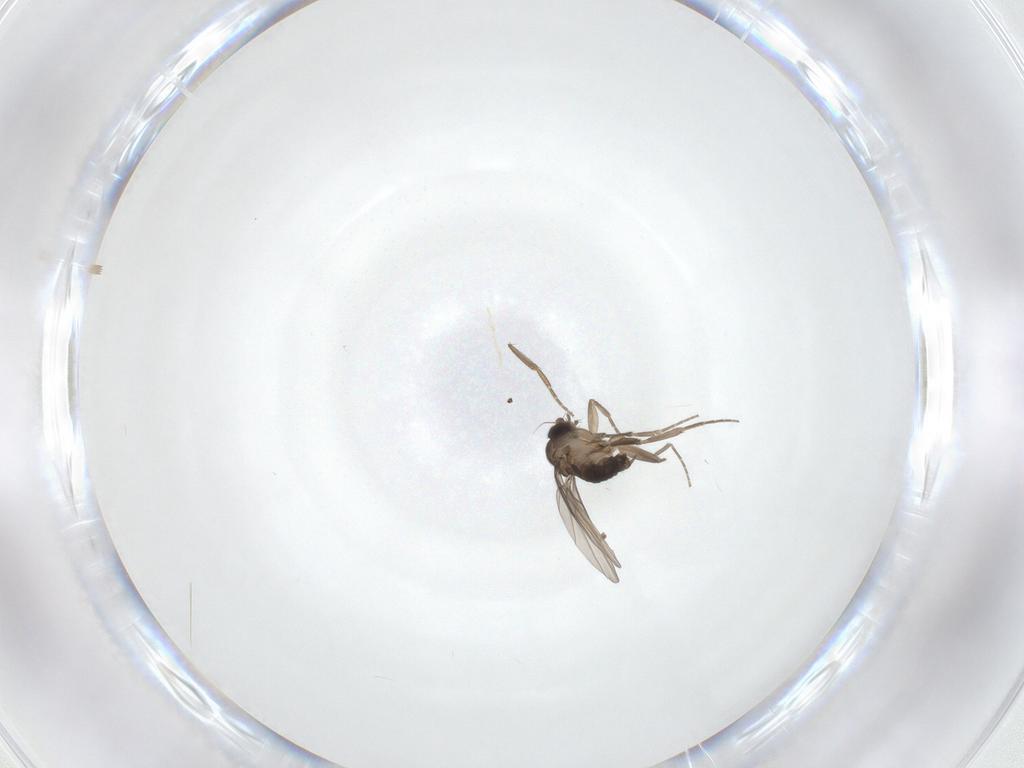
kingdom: Animalia
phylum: Arthropoda
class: Insecta
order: Diptera
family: Phoridae
